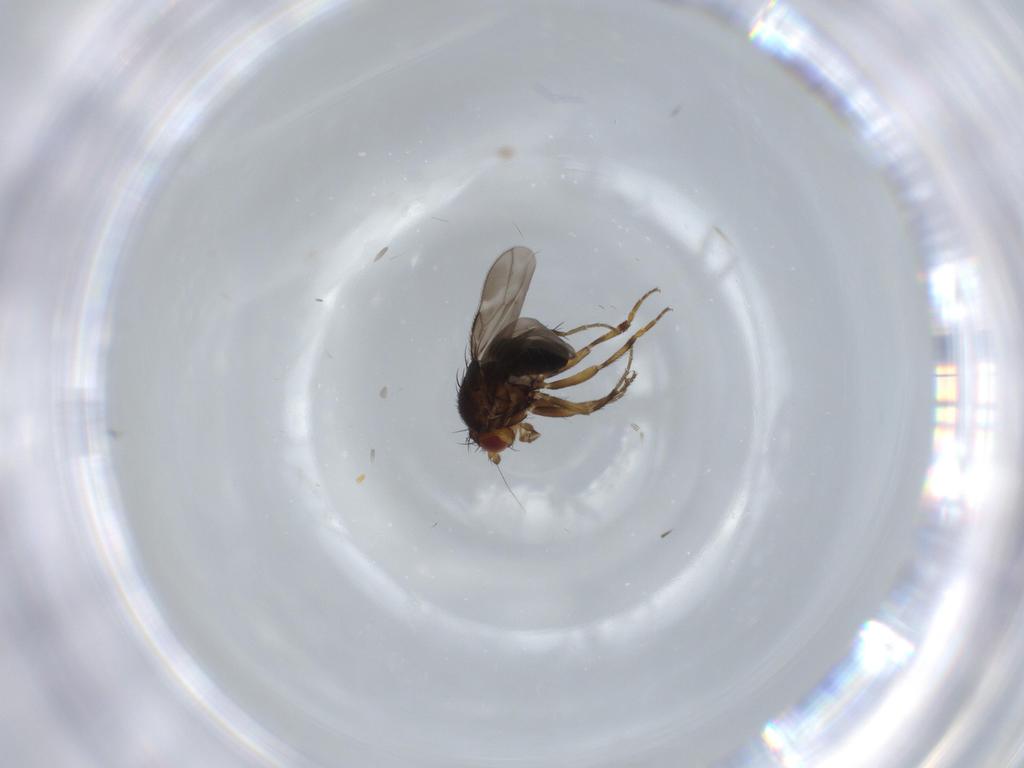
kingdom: Animalia
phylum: Arthropoda
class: Insecta
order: Diptera
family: Sphaeroceridae
